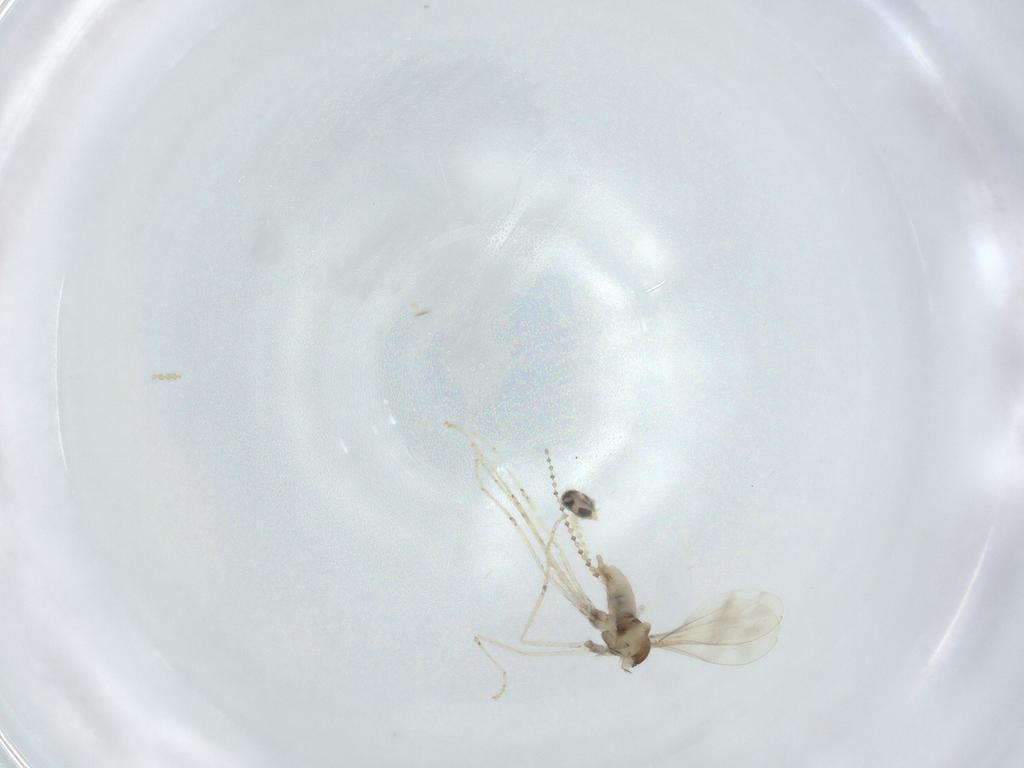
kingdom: Animalia
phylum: Arthropoda
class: Insecta
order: Diptera
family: Cecidomyiidae
